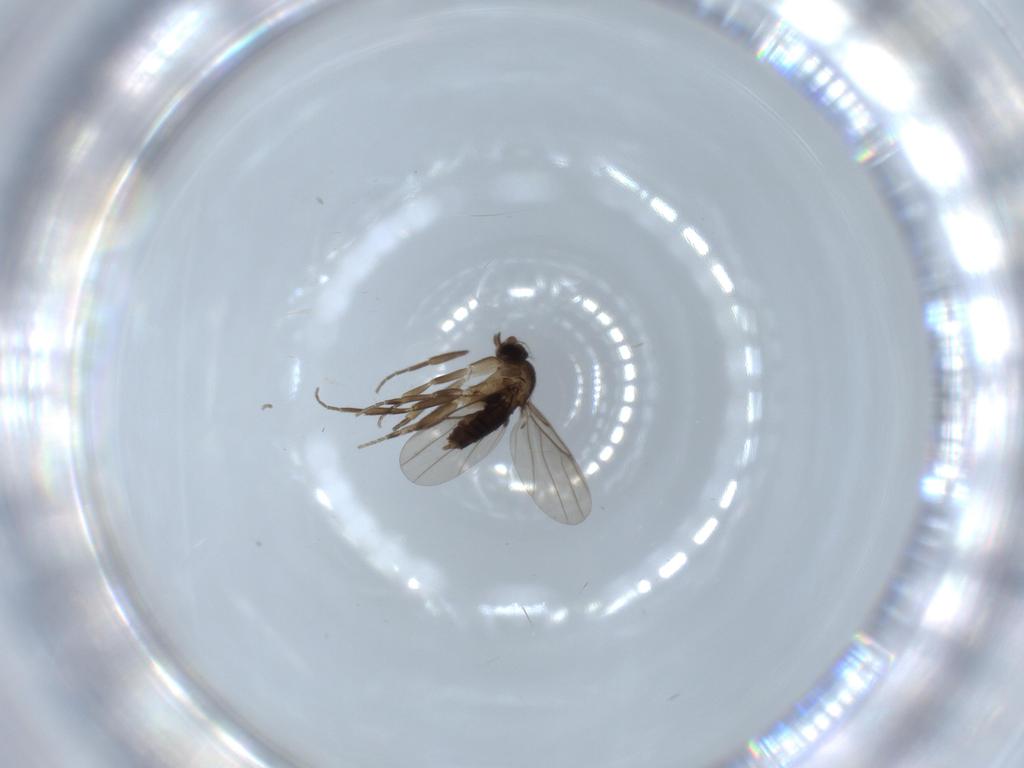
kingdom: Animalia
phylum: Arthropoda
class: Insecta
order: Diptera
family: Phoridae
